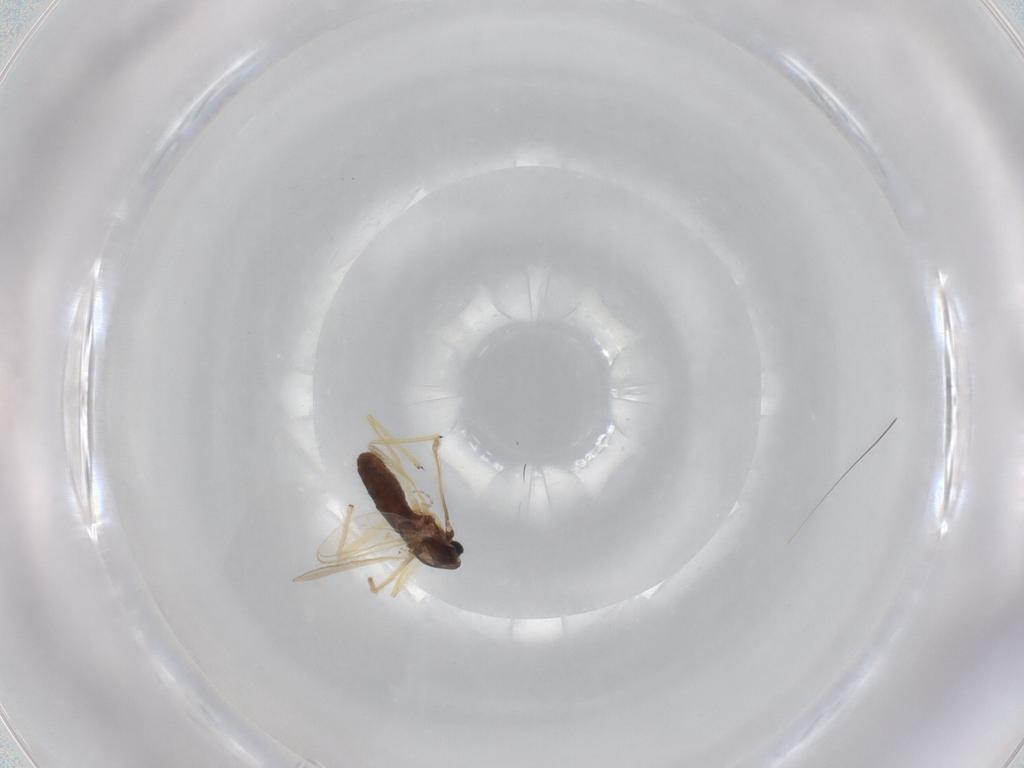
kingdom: Animalia
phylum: Arthropoda
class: Insecta
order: Diptera
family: Chironomidae
